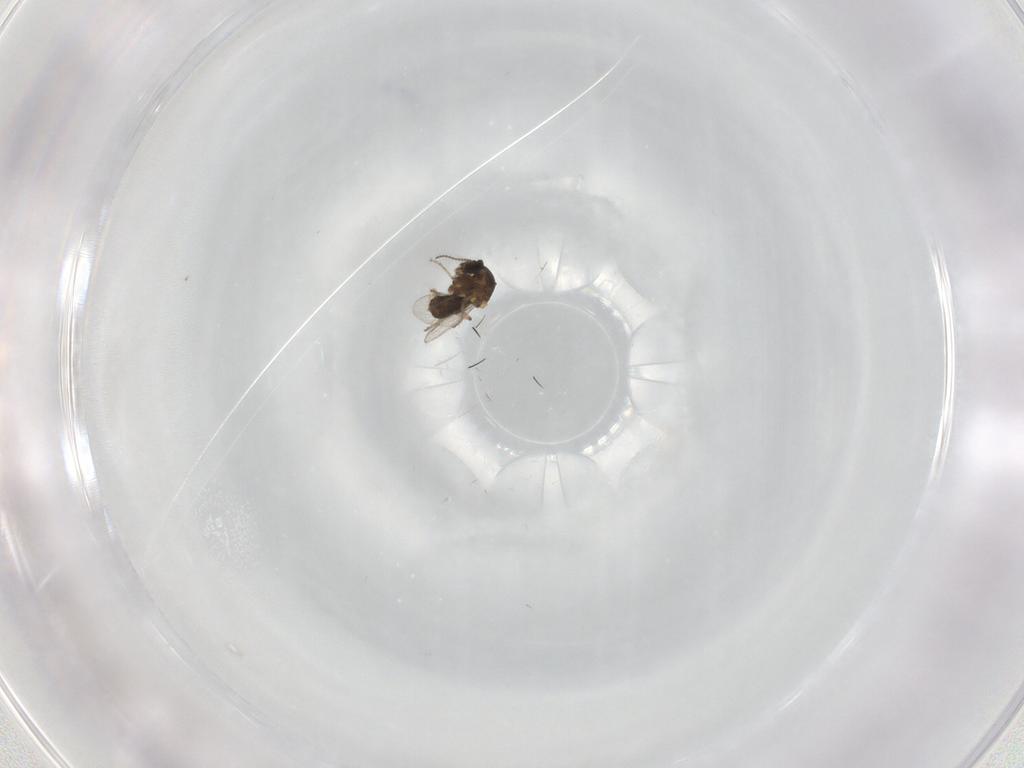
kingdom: Animalia
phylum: Arthropoda
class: Insecta
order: Diptera
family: Ceratopogonidae
